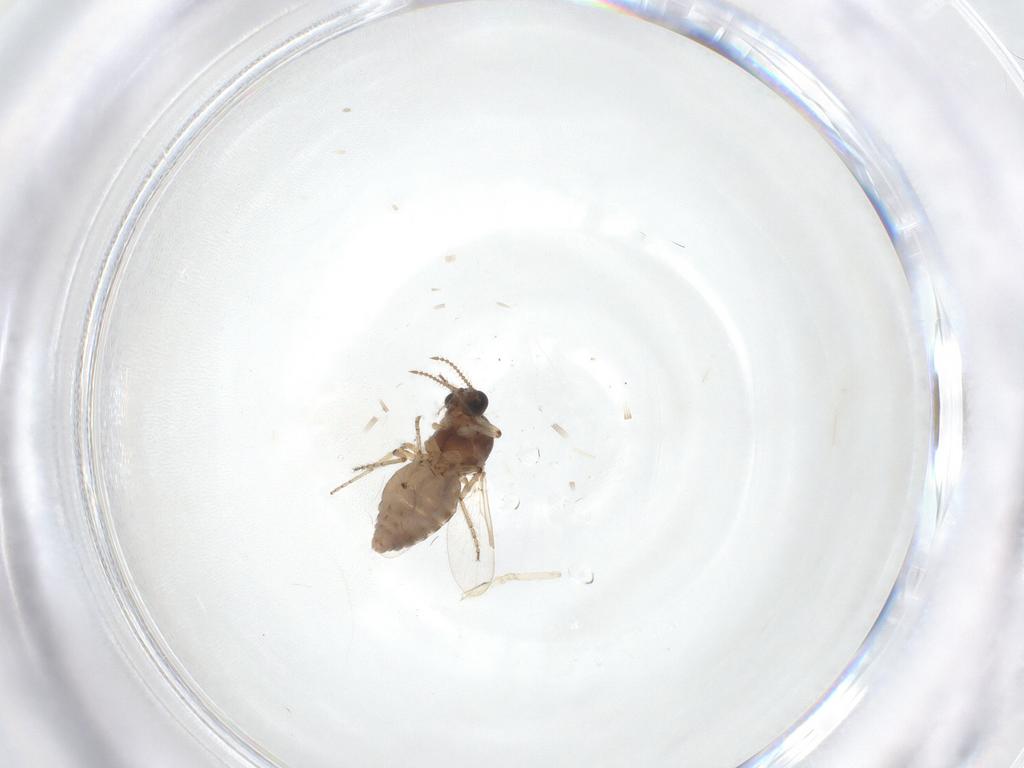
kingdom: Animalia
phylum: Arthropoda
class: Insecta
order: Diptera
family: Ceratopogonidae
